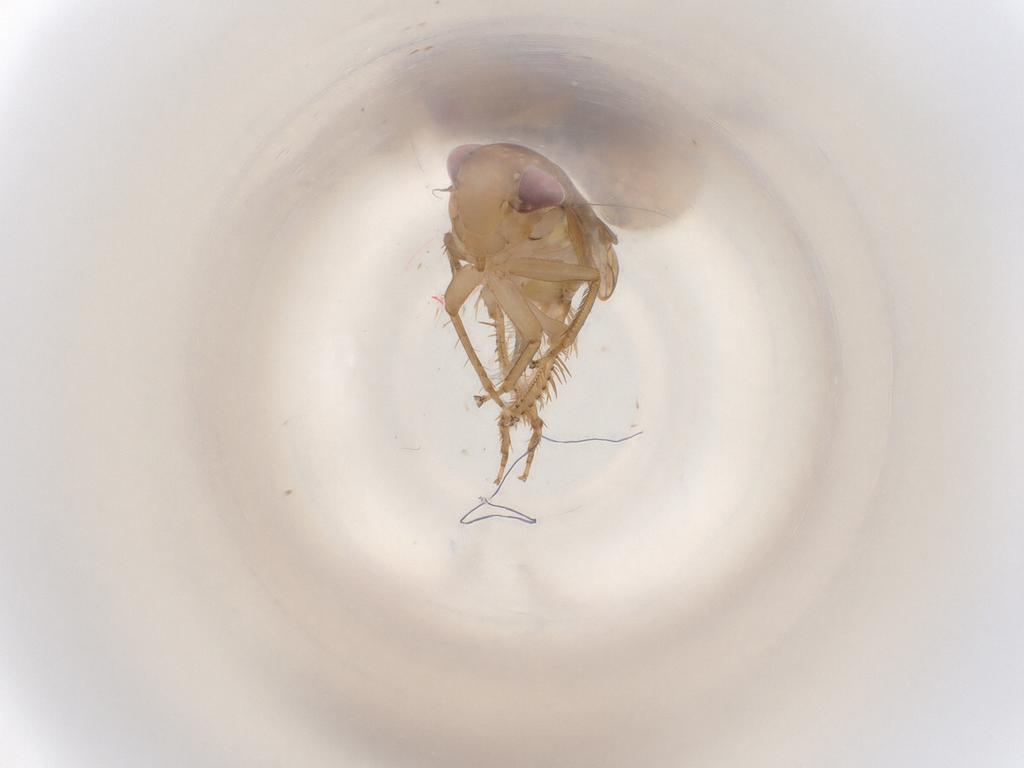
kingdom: Animalia
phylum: Arthropoda
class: Insecta
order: Hemiptera
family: Cicadellidae
